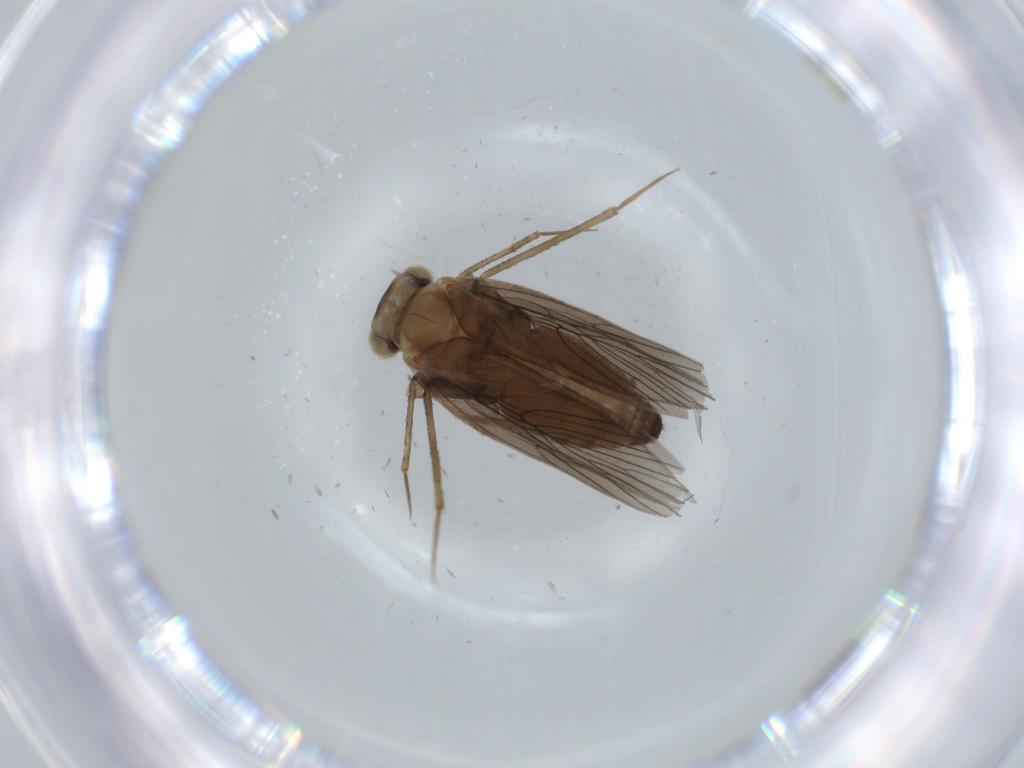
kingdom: Animalia
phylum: Arthropoda
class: Insecta
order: Psocodea
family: Lepidopsocidae
